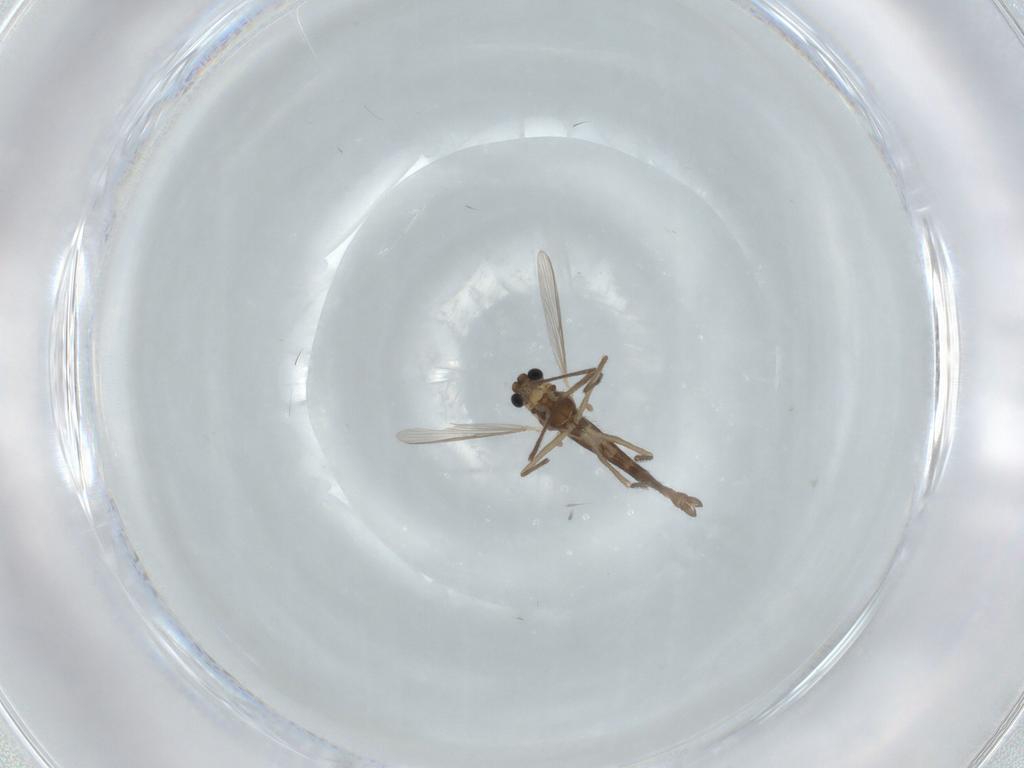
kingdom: Animalia
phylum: Arthropoda
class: Insecta
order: Diptera
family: Chironomidae
